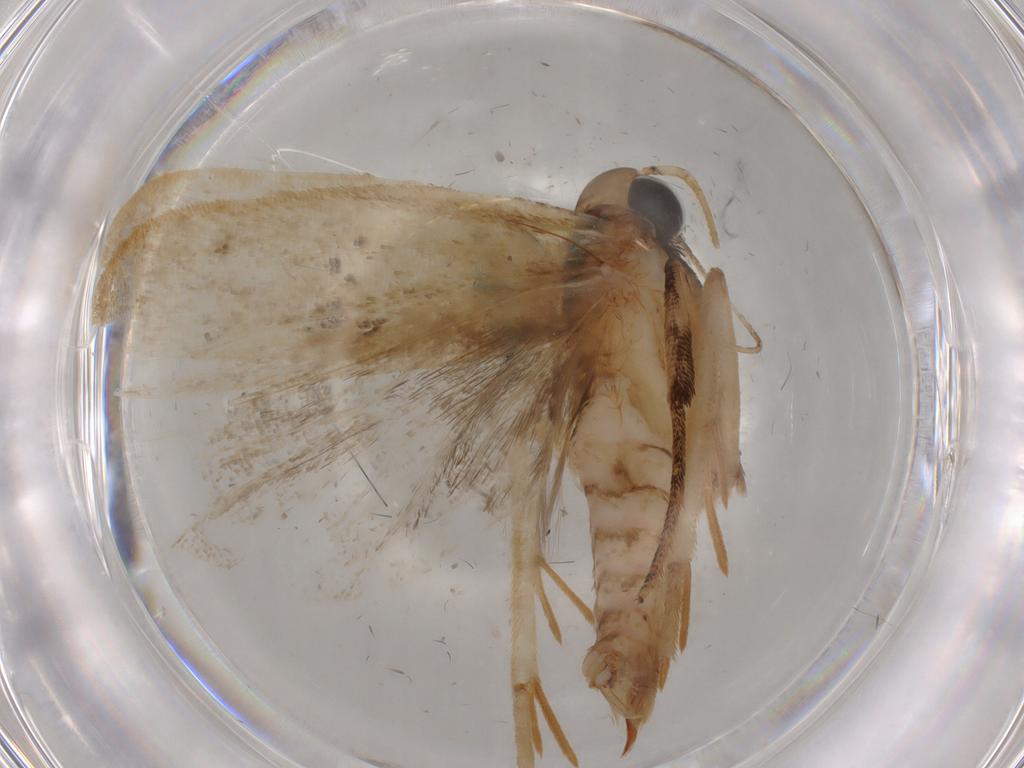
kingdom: Animalia
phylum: Arthropoda
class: Insecta
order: Lepidoptera
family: Gelechiidae
